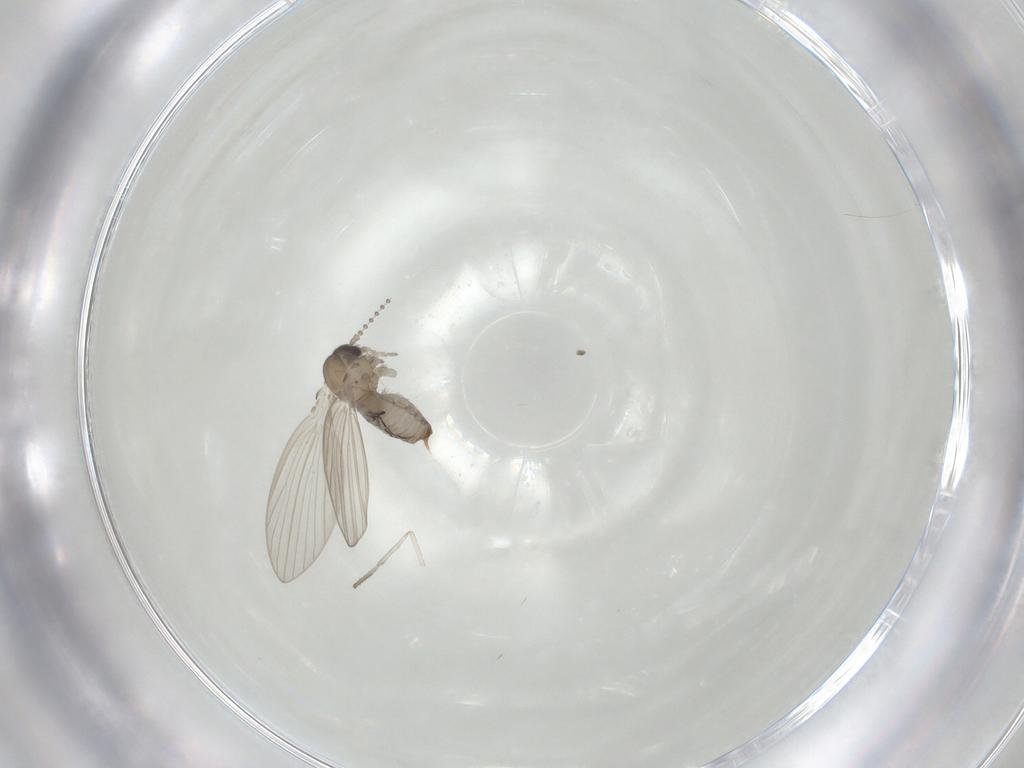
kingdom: Animalia
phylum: Arthropoda
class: Insecta
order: Diptera
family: Psychodidae
